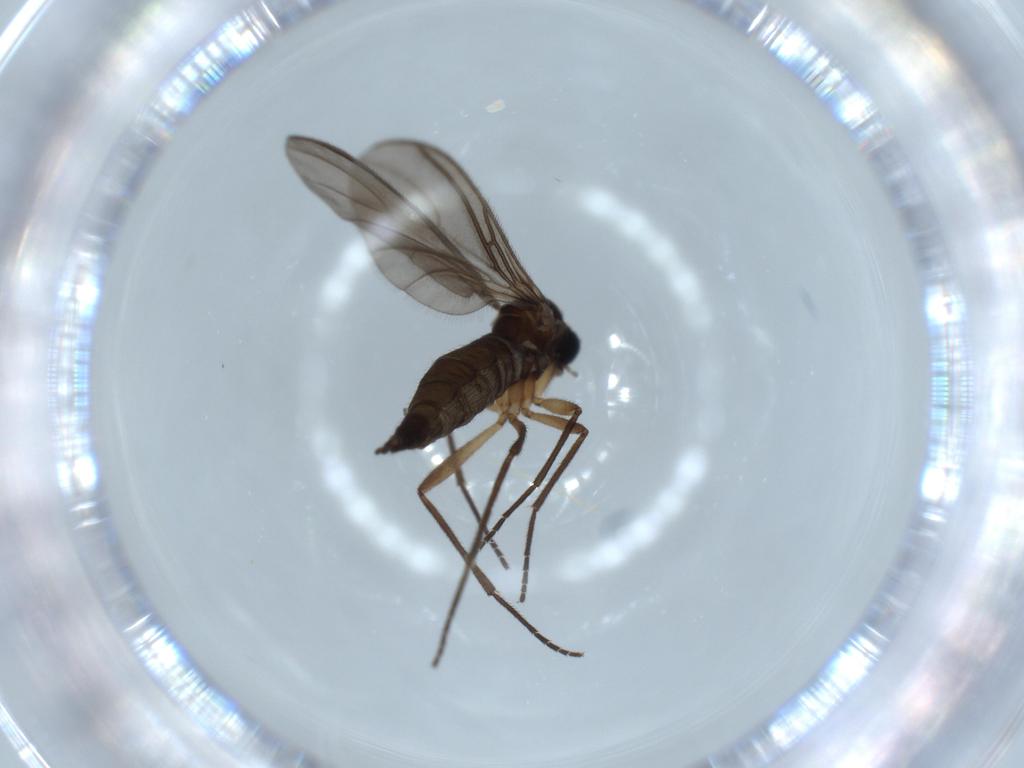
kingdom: Animalia
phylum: Arthropoda
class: Insecta
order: Diptera
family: Sciaridae
